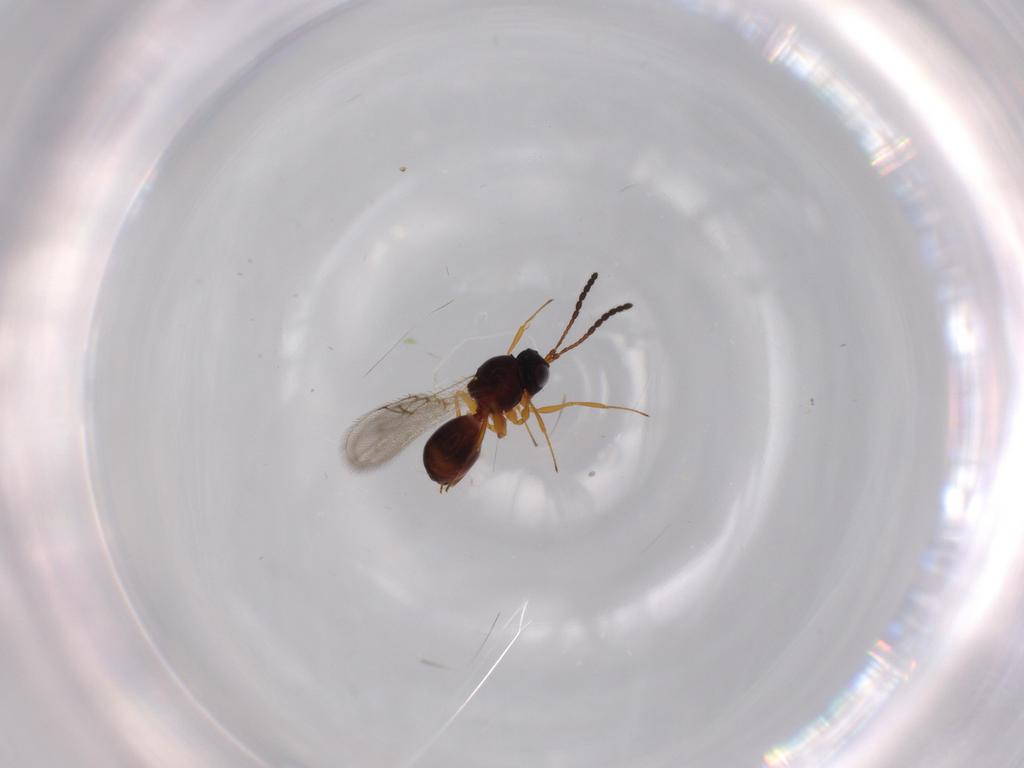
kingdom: Animalia
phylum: Arthropoda
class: Insecta
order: Hymenoptera
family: Figitidae
